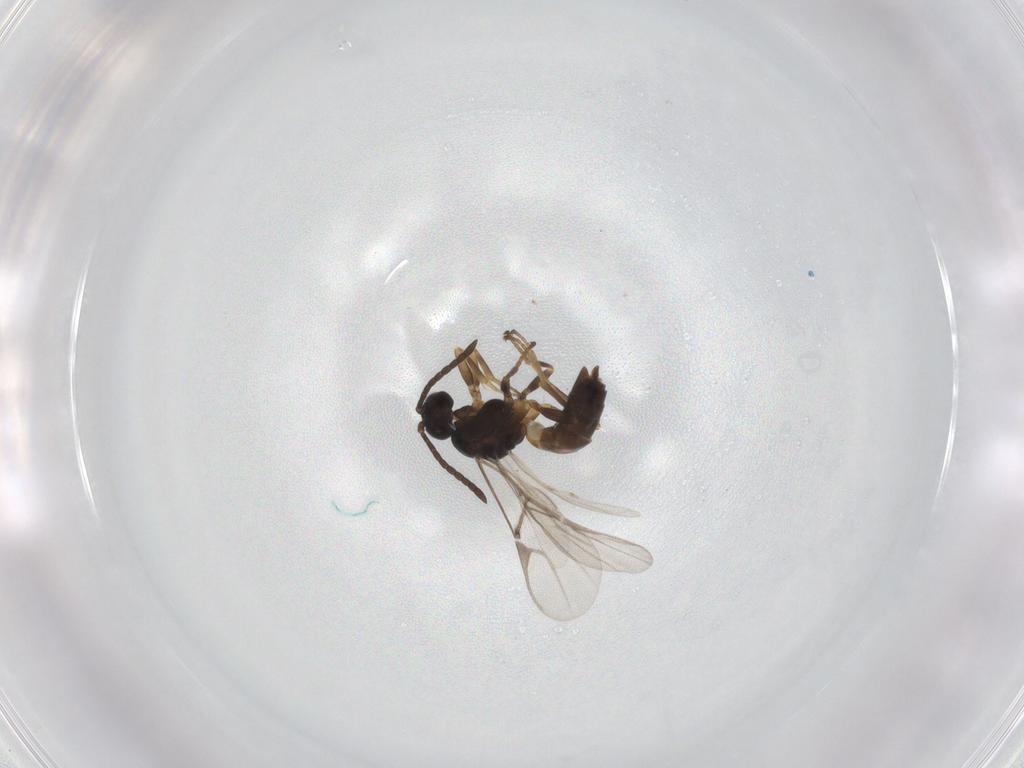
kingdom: Animalia
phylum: Arthropoda
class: Insecta
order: Hymenoptera
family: Braconidae
